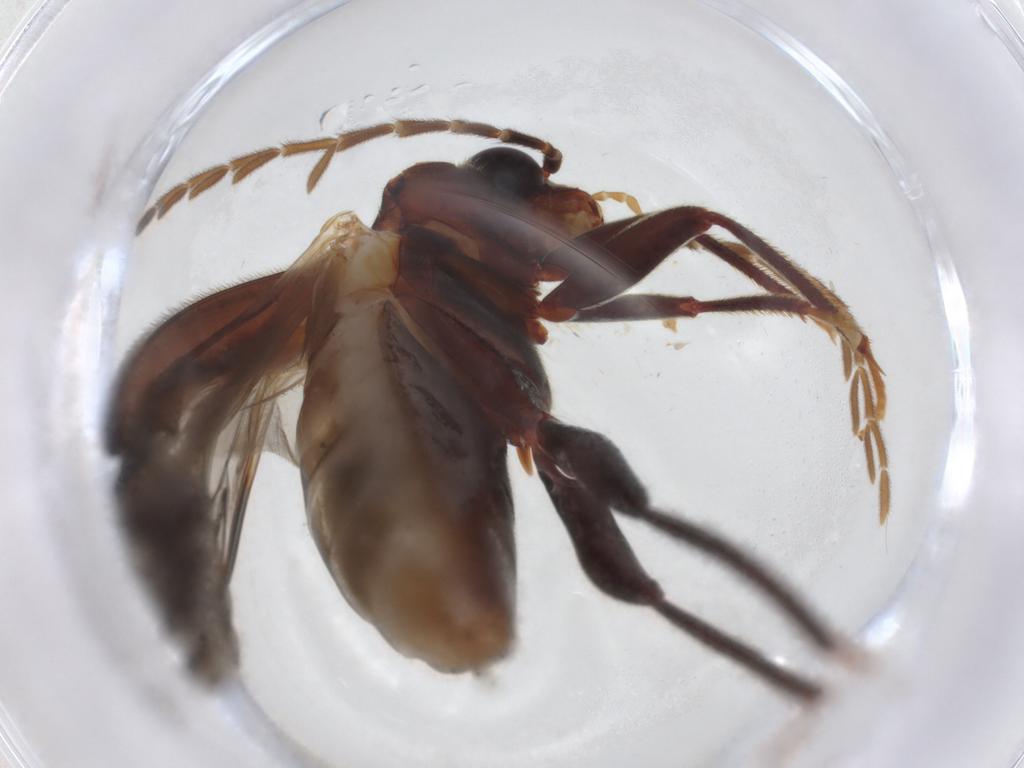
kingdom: Animalia
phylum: Arthropoda
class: Insecta
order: Coleoptera
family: Ptilodactylidae
